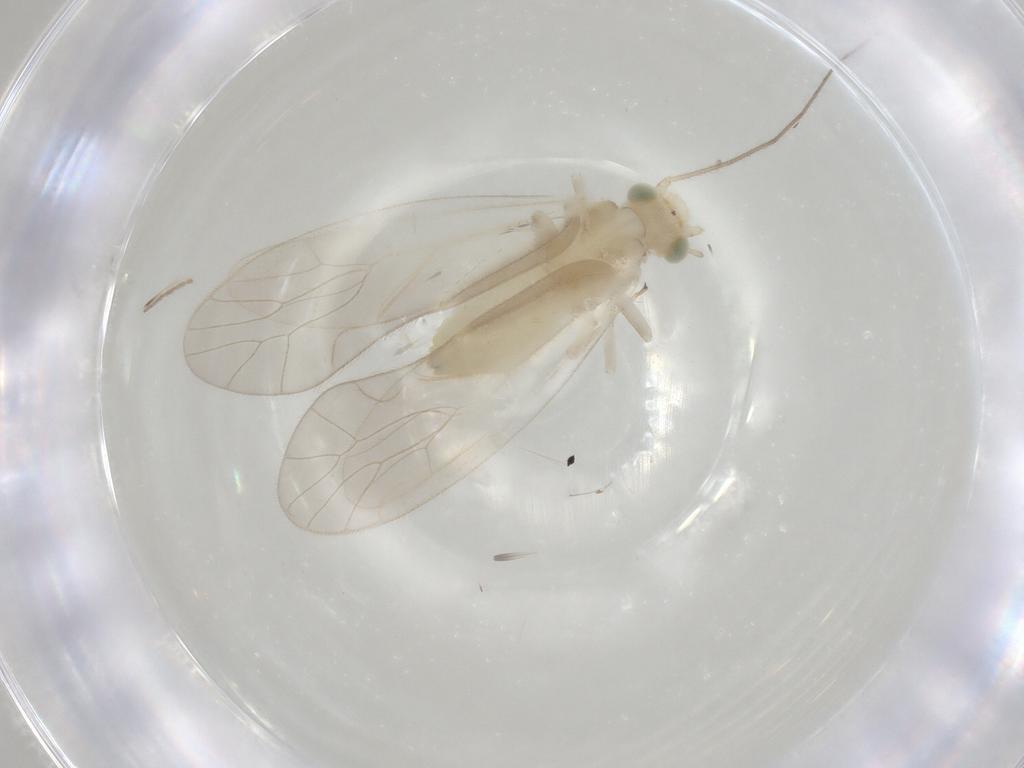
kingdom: Animalia
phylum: Arthropoda
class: Insecta
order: Psocodea
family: Caeciliusidae
